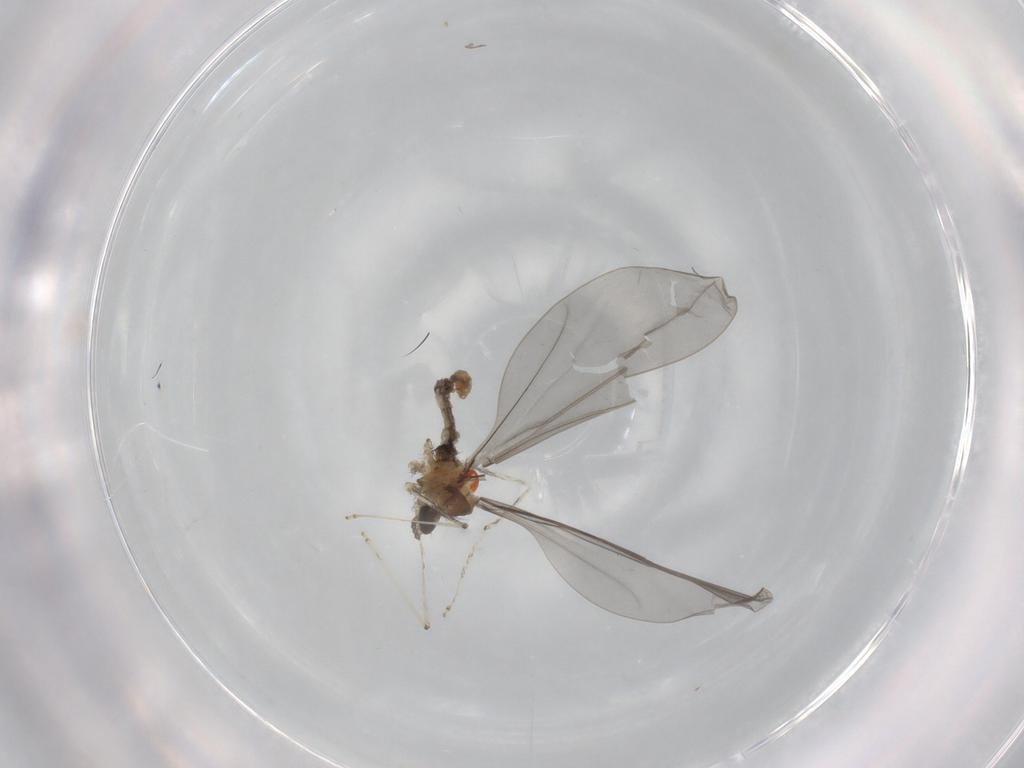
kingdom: Animalia
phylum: Arthropoda
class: Insecta
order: Diptera
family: Cecidomyiidae
